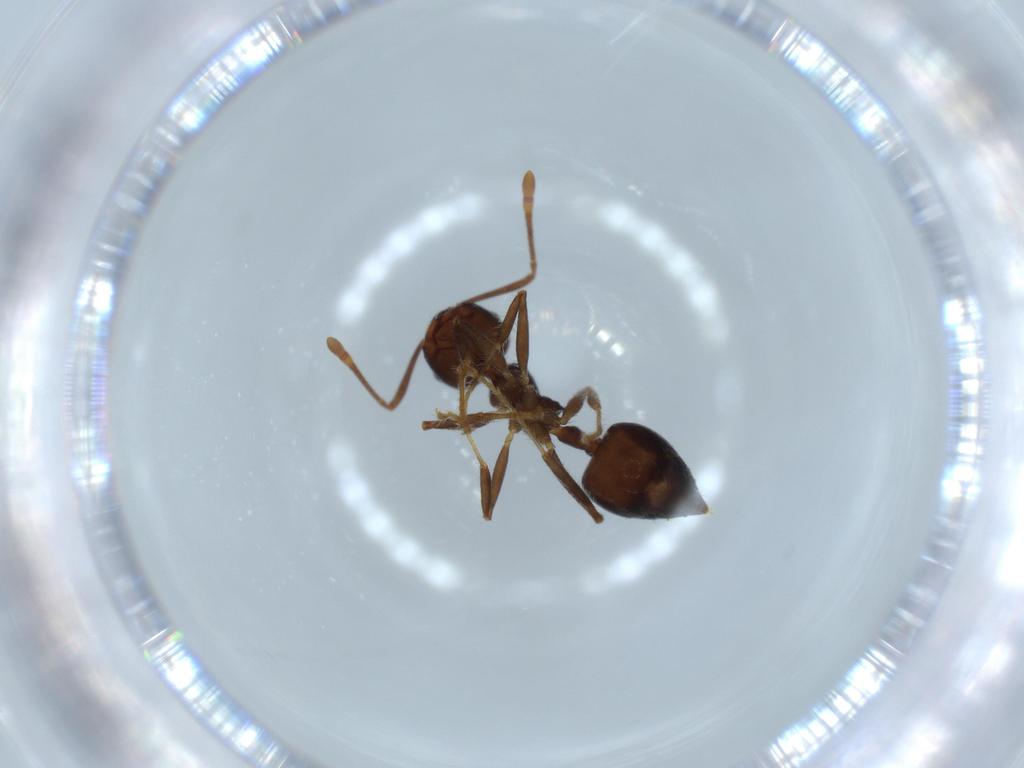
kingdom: Animalia
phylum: Arthropoda
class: Insecta
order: Hymenoptera
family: Formicidae
